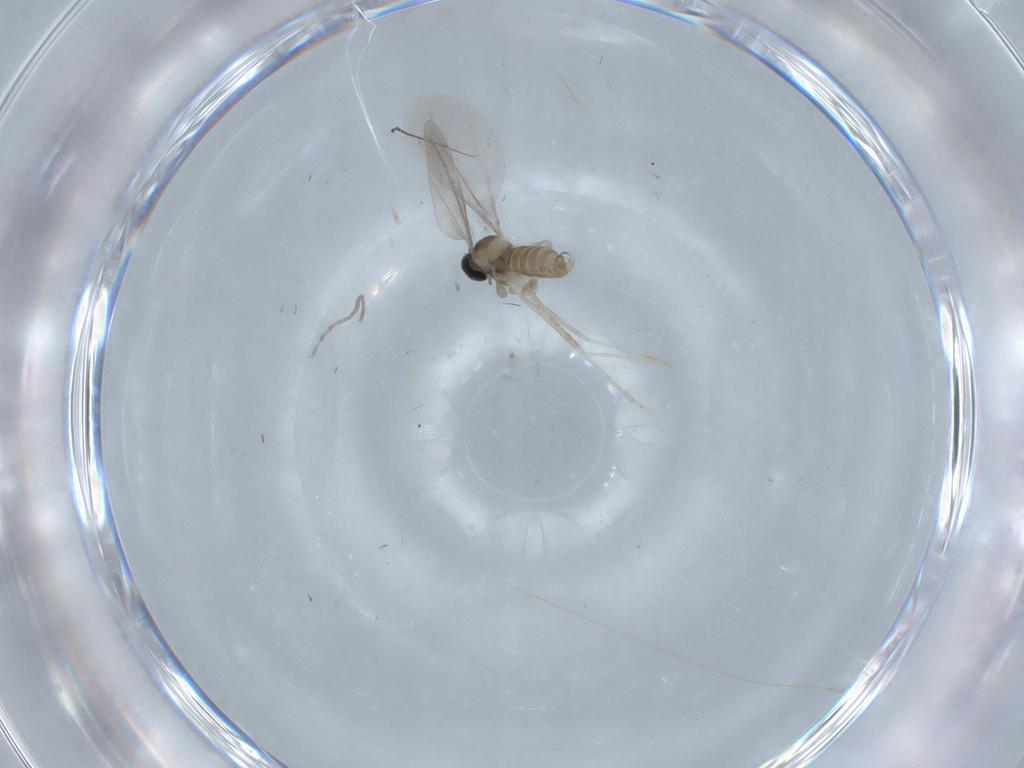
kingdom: Animalia
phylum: Arthropoda
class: Insecta
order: Diptera
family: Cecidomyiidae
